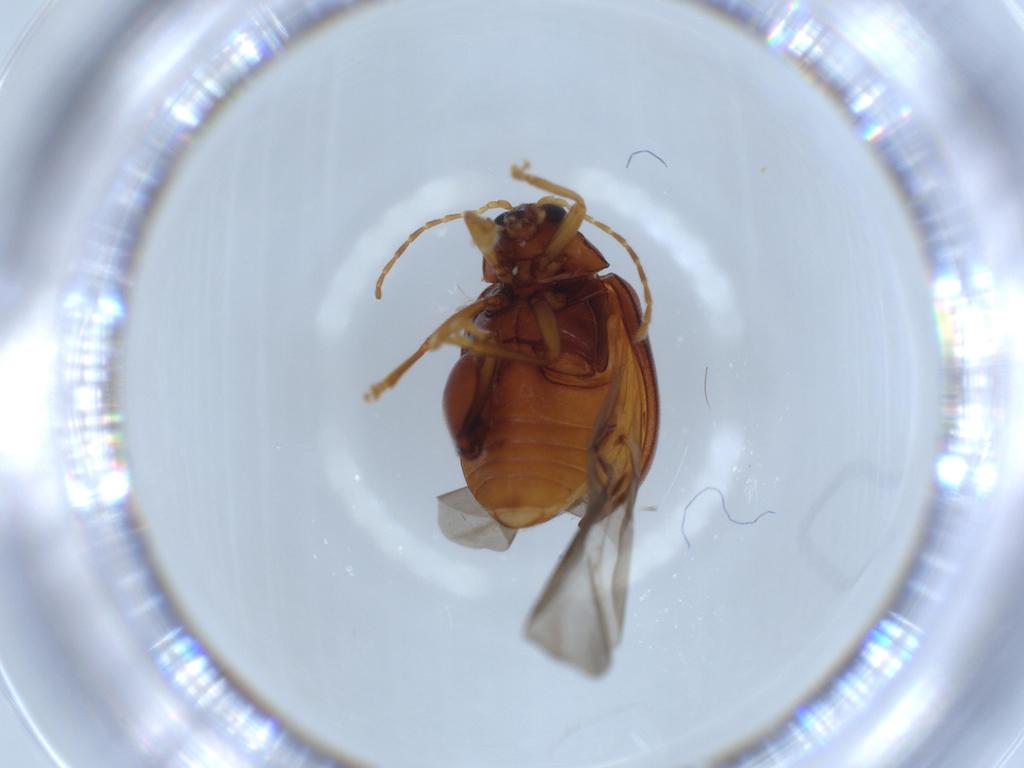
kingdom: Animalia
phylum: Arthropoda
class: Insecta
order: Coleoptera
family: Chrysomelidae
